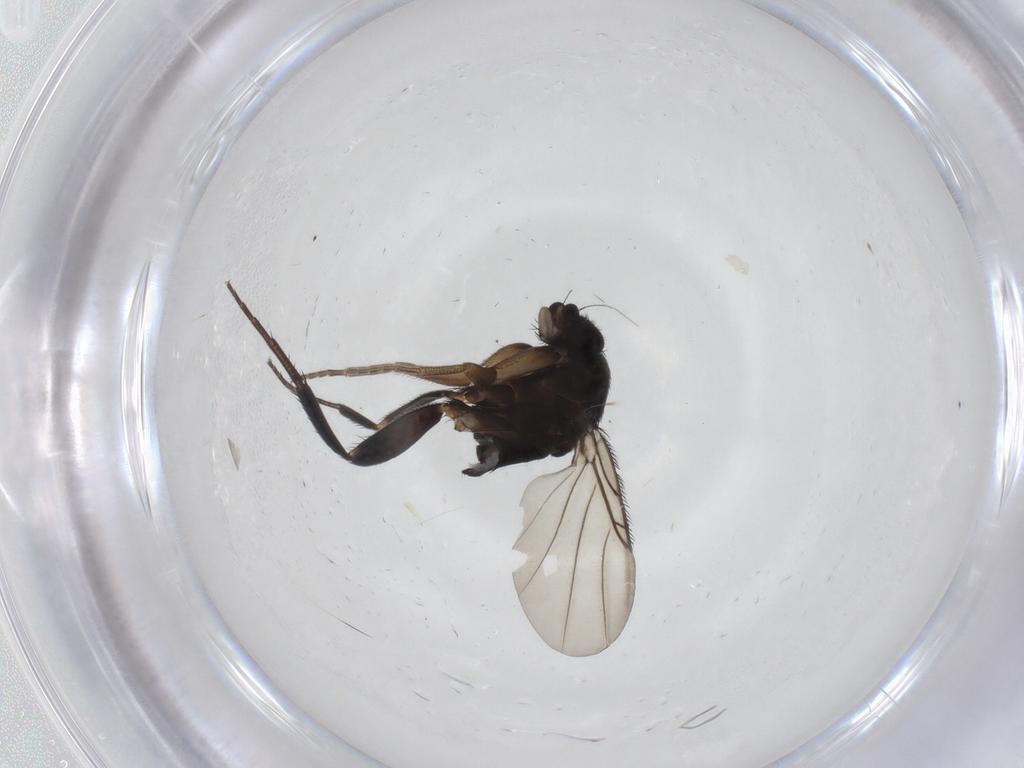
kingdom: Animalia
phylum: Arthropoda
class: Insecta
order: Diptera
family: Phoridae
